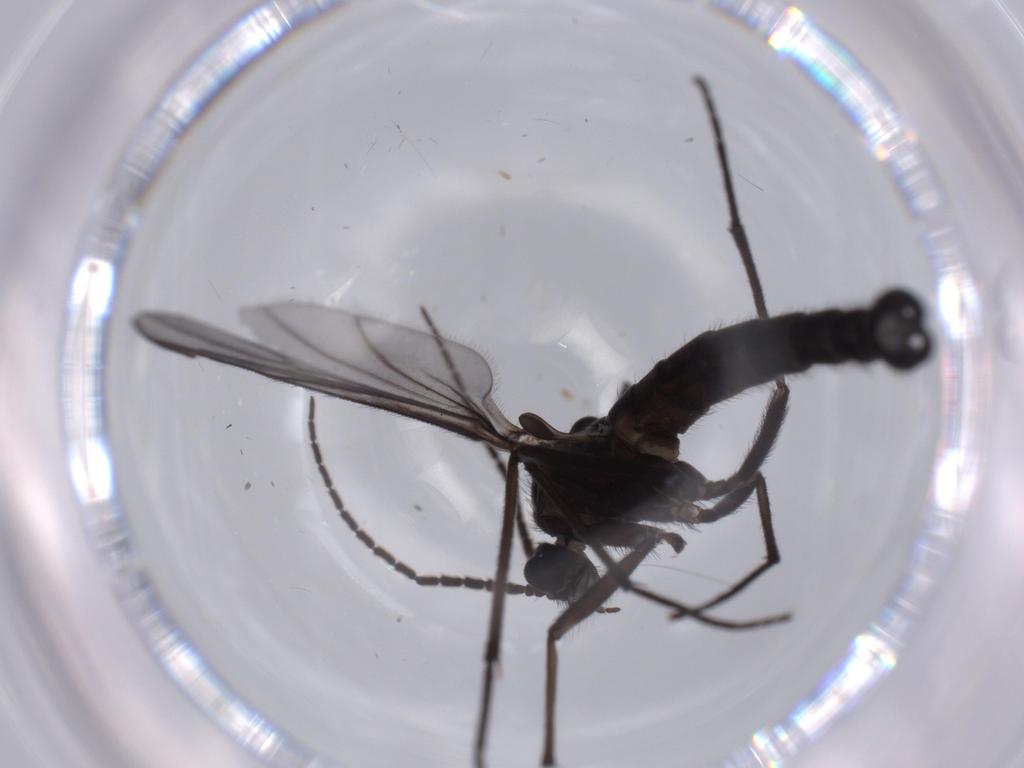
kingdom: Animalia
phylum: Arthropoda
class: Insecta
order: Diptera
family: Sciaridae
